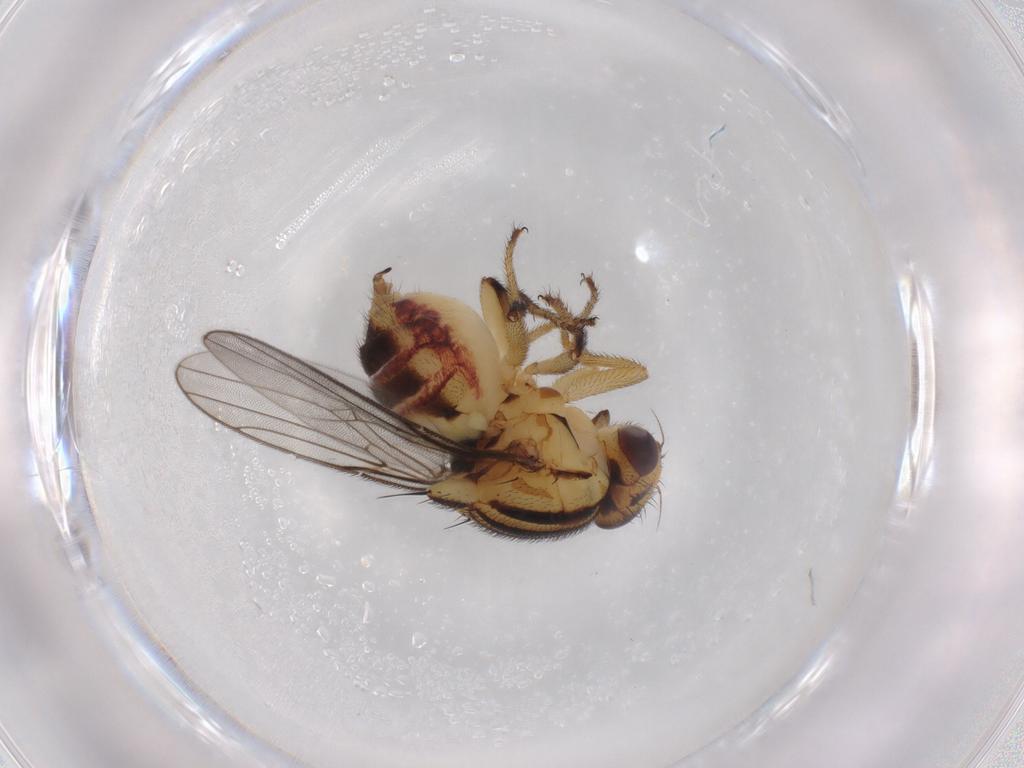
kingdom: Animalia
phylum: Arthropoda
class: Insecta
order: Diptera
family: Chloropidae
